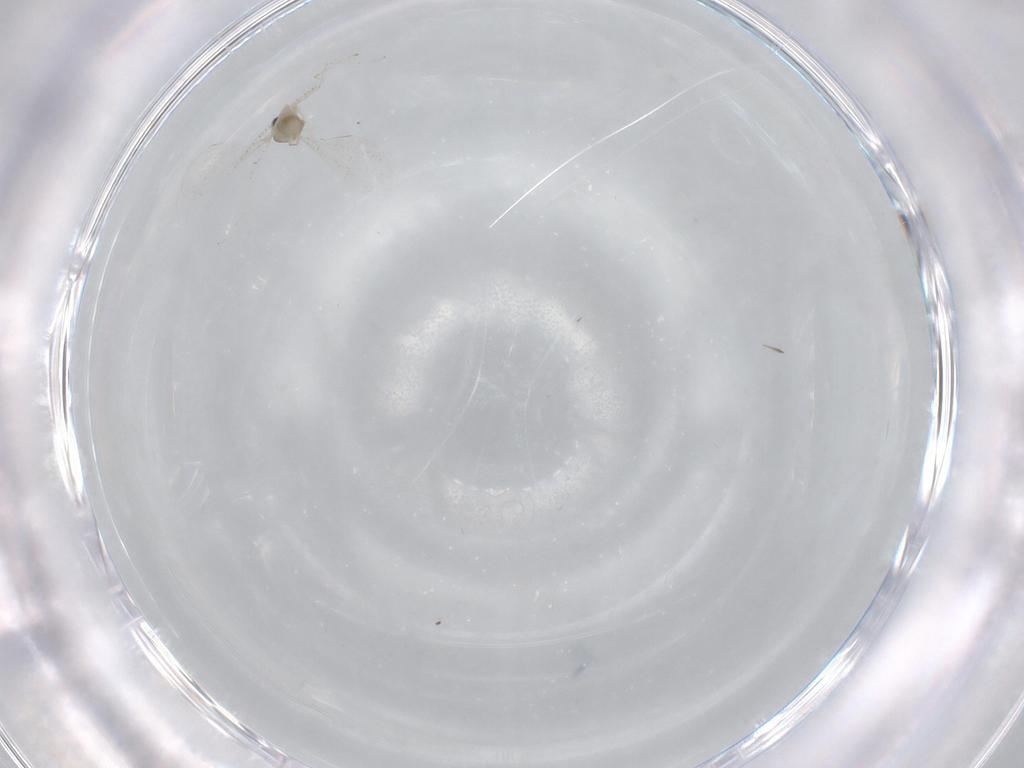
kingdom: Animalia
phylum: Arthropoda
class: Insecta
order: Diptera
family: Cecidomyiidae
